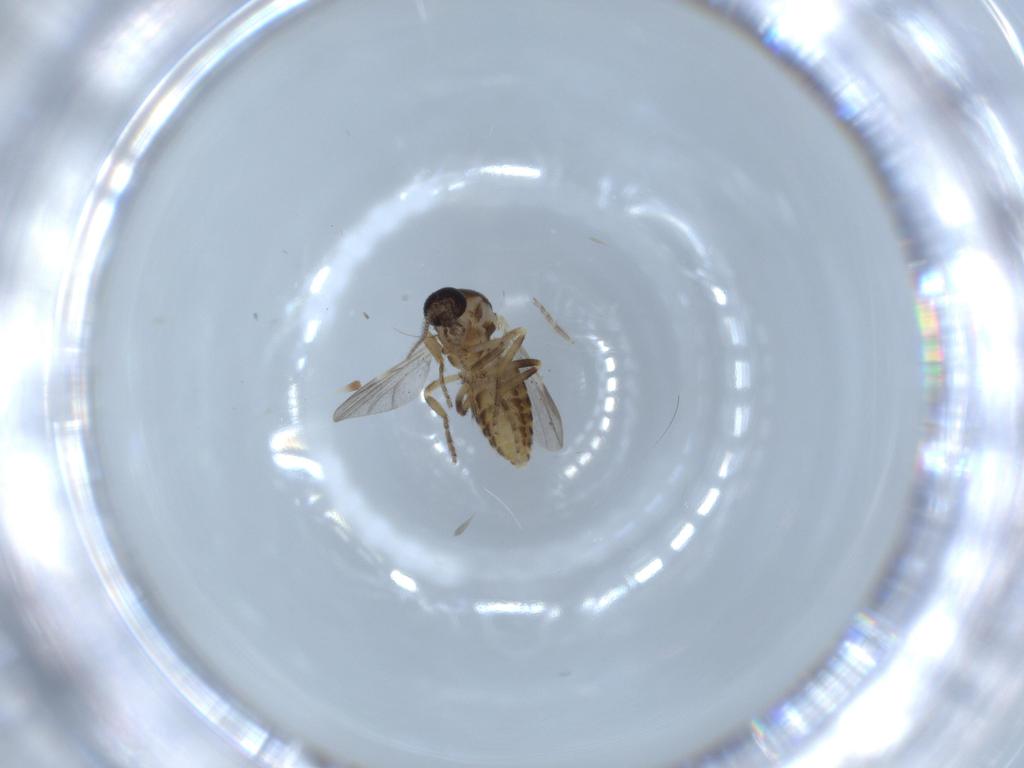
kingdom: Animalia
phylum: Arthropoda
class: Insecta
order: Diptera
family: Ceratopogonidae
